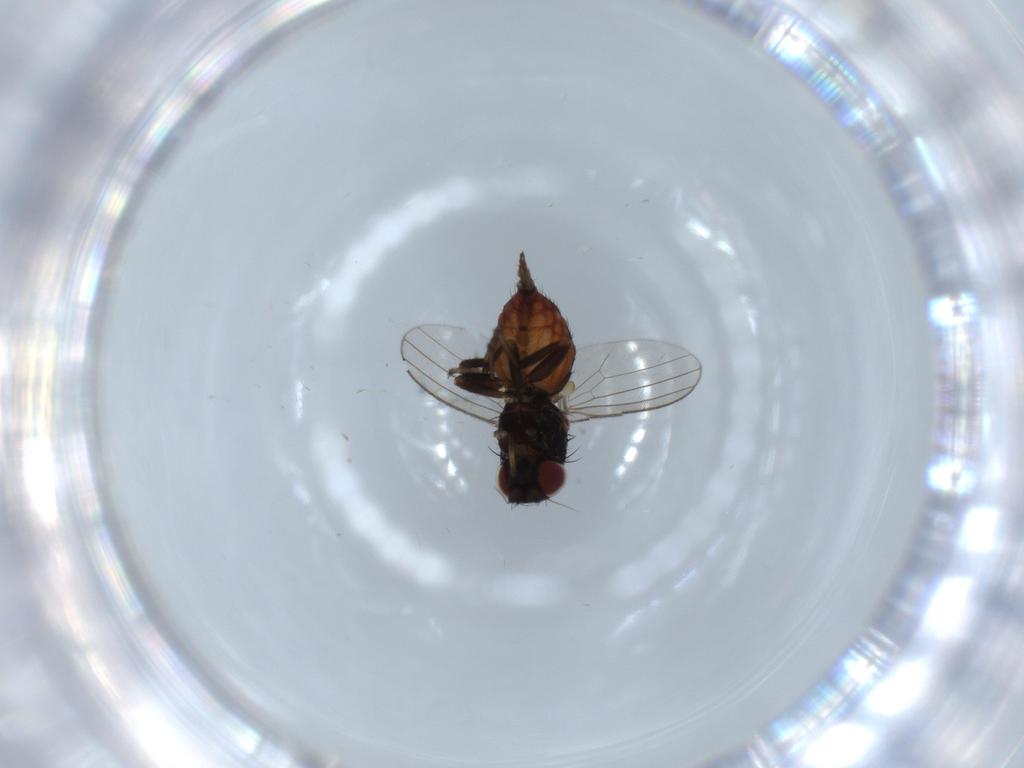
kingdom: Animalia
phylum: Arthropoda
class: Insecta
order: Diptera
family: Milichiidae
